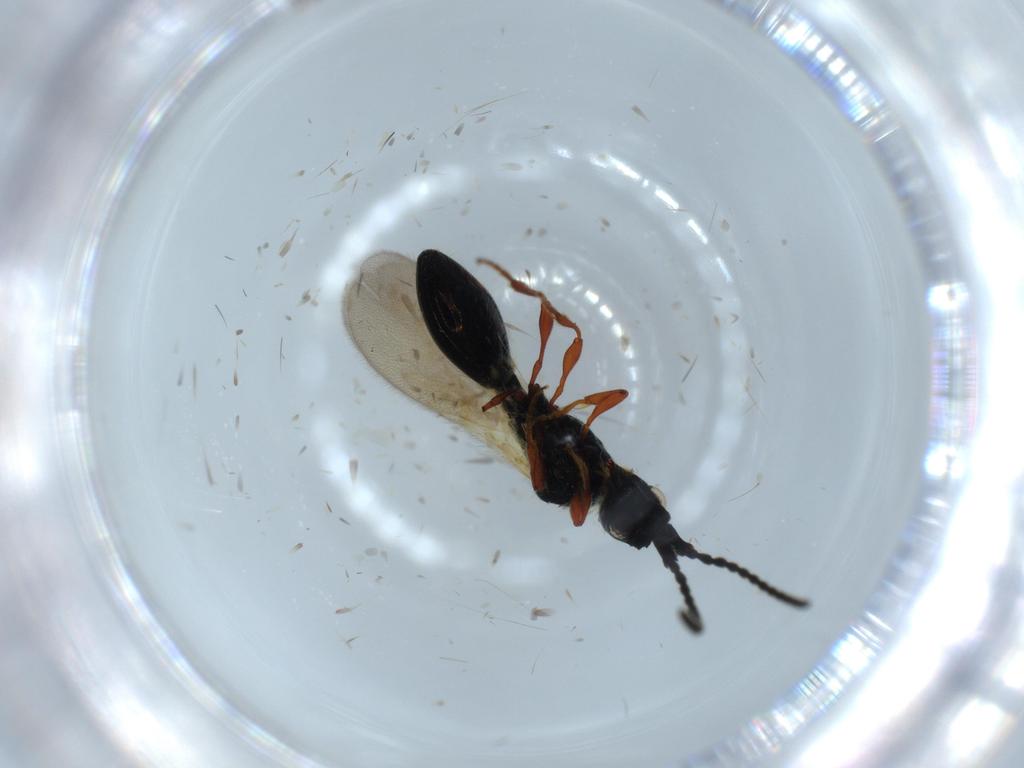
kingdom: Animalia
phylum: Arthropoda
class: Insecta
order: Hymenoptera
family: Diapriidae
